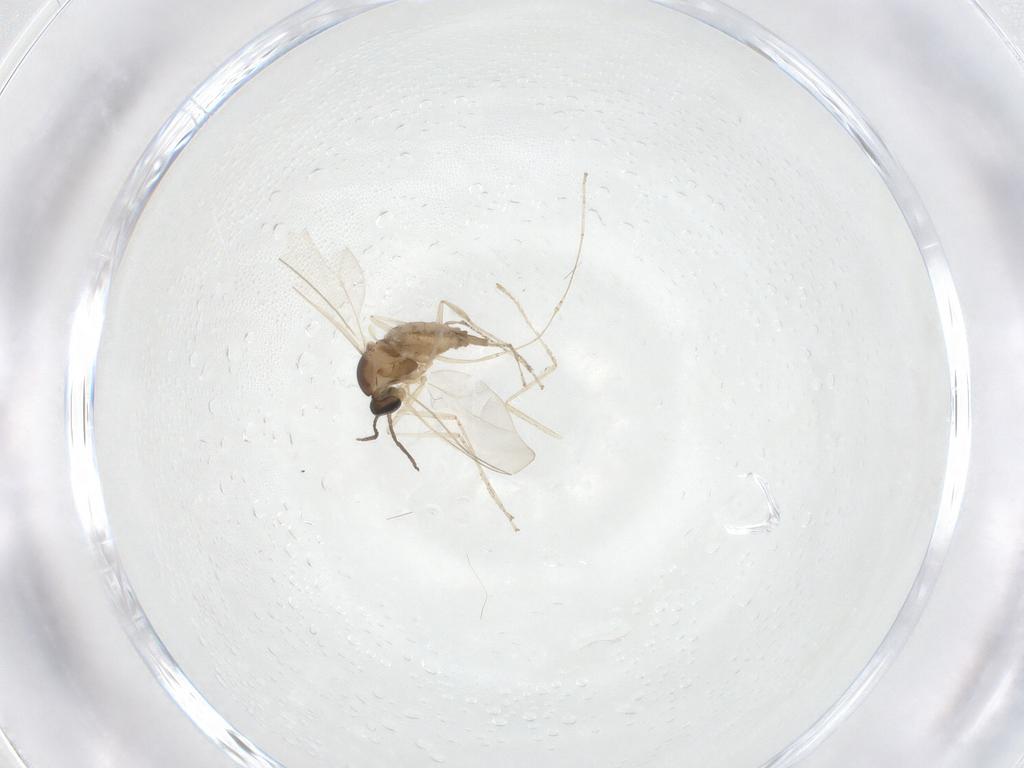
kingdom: Animalia
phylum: Arthropoda
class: Insecta
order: Diptera
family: Cecidomyiidae
